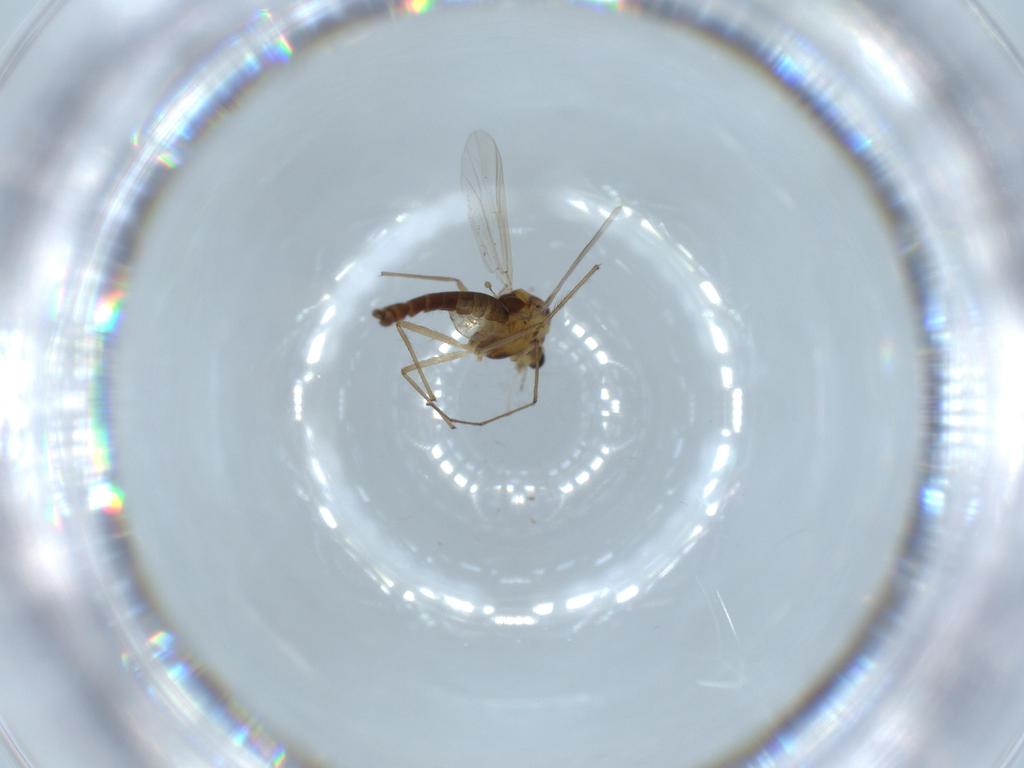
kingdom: Animalia
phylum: Arthropoda
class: Insecta
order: Diptera
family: Chironomidae
